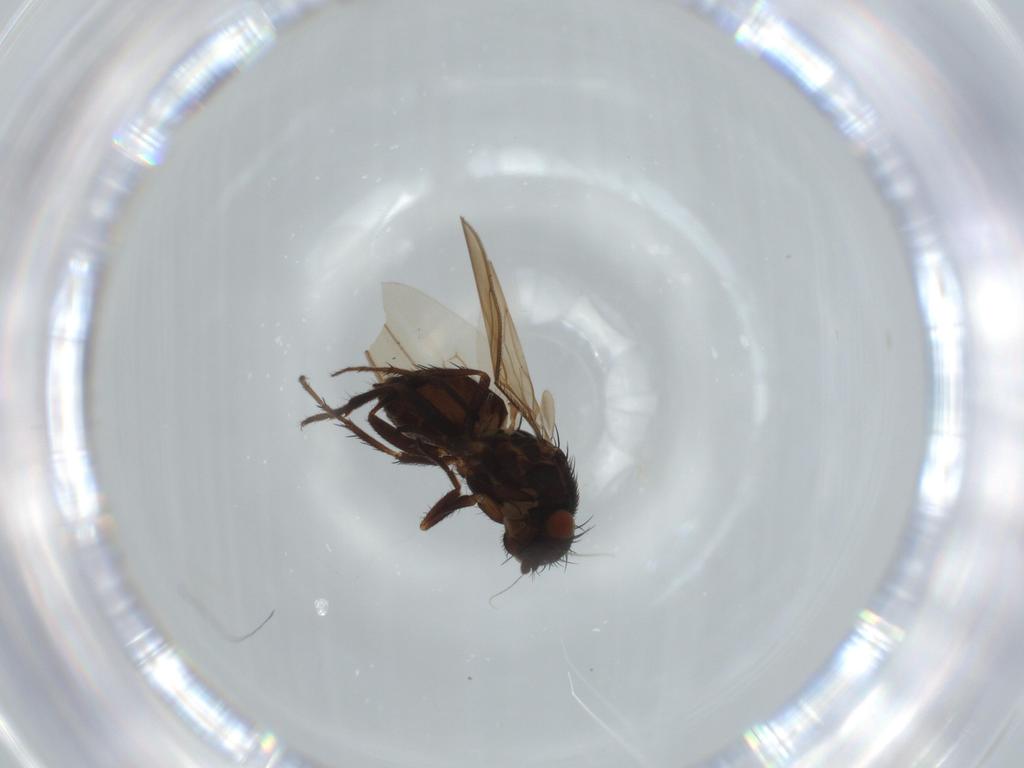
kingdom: Animalia
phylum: Arthropoda
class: Insecta
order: Diptera
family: Sphaeroceridae
